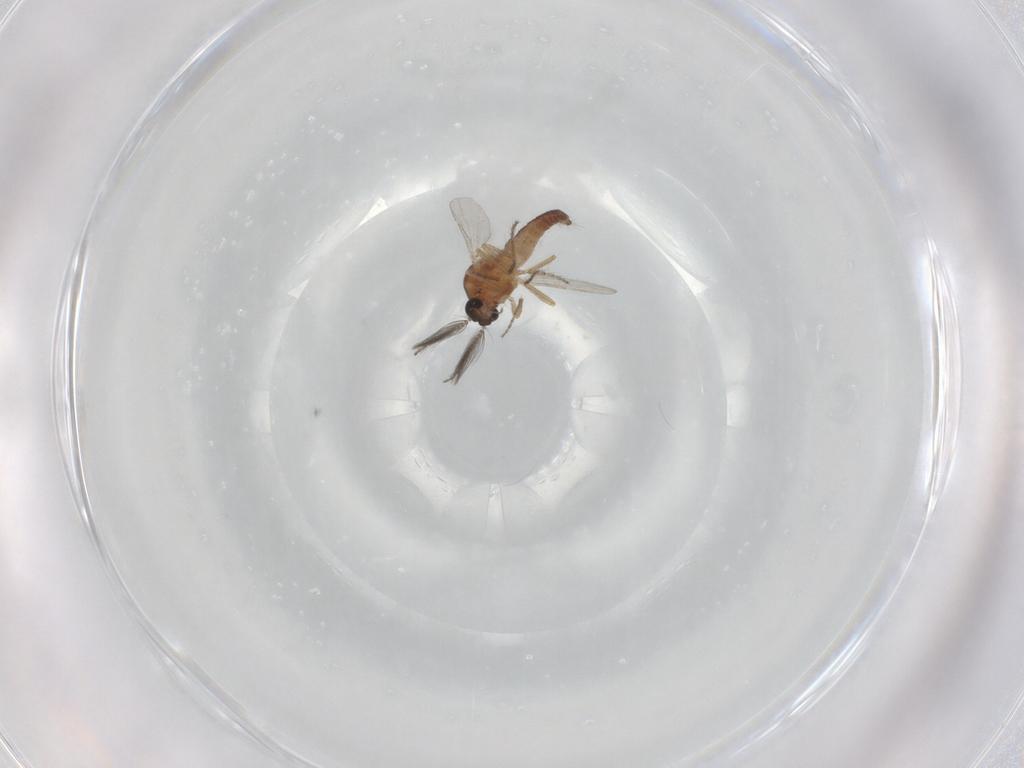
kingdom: Animalia
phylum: Arthropoda
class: Insecta
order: Diptera
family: Ceratopogonidae
